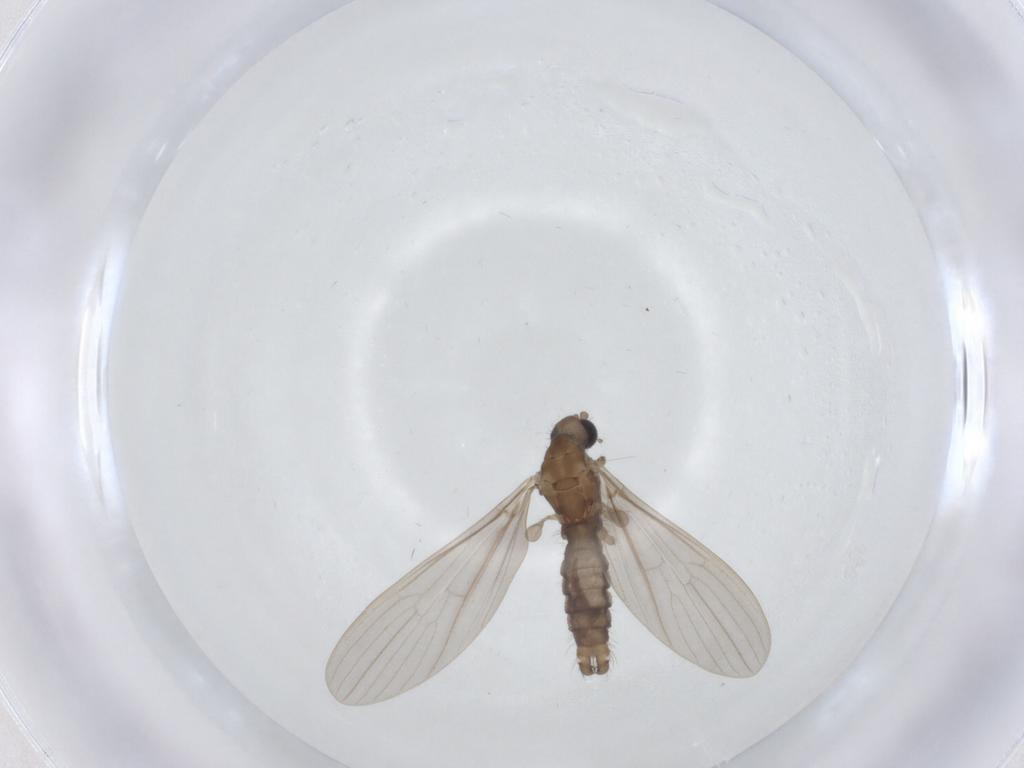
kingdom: Animalia
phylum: Arthropoda
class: Insecta
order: Diptera
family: Limoniidae
